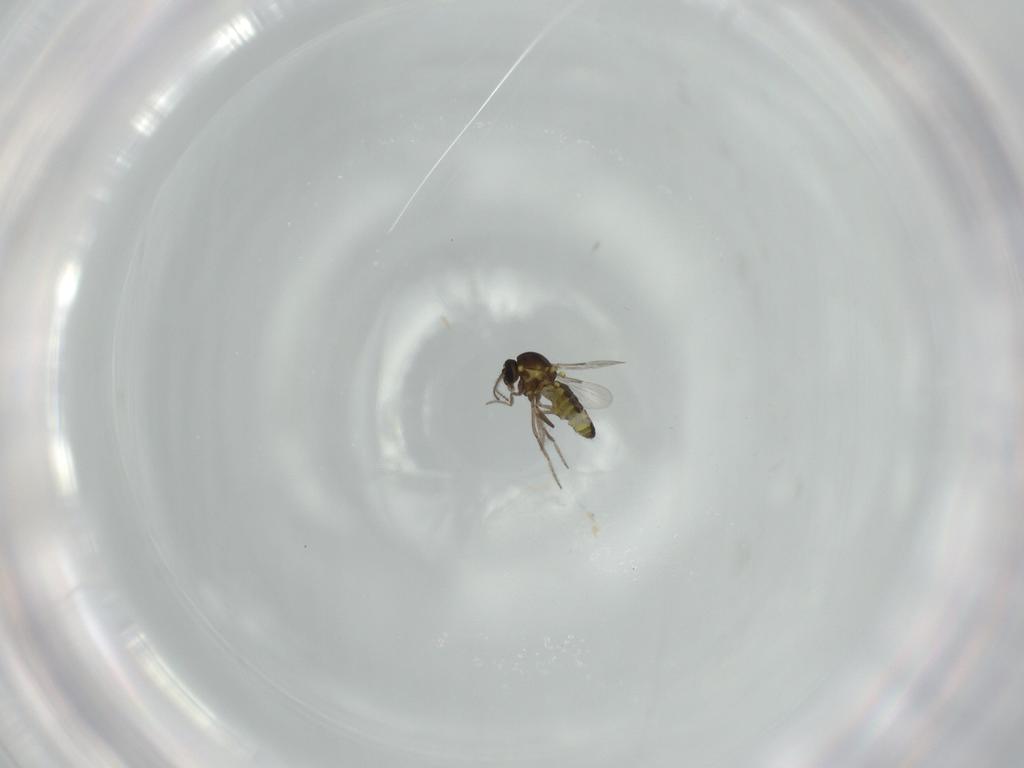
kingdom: Animalia
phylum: Arthropoda
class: Insecta
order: Diptera
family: Ceratopogonidae
